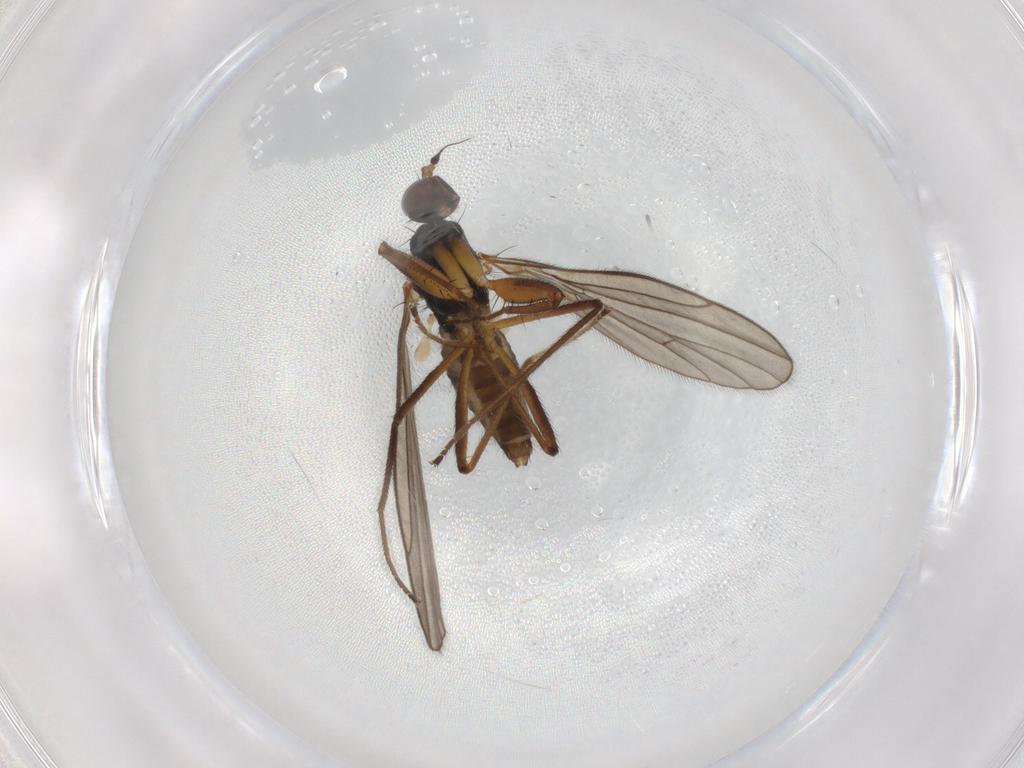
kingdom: Animalia
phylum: Arthropoda
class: Insecta
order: Diptera
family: Empididae
